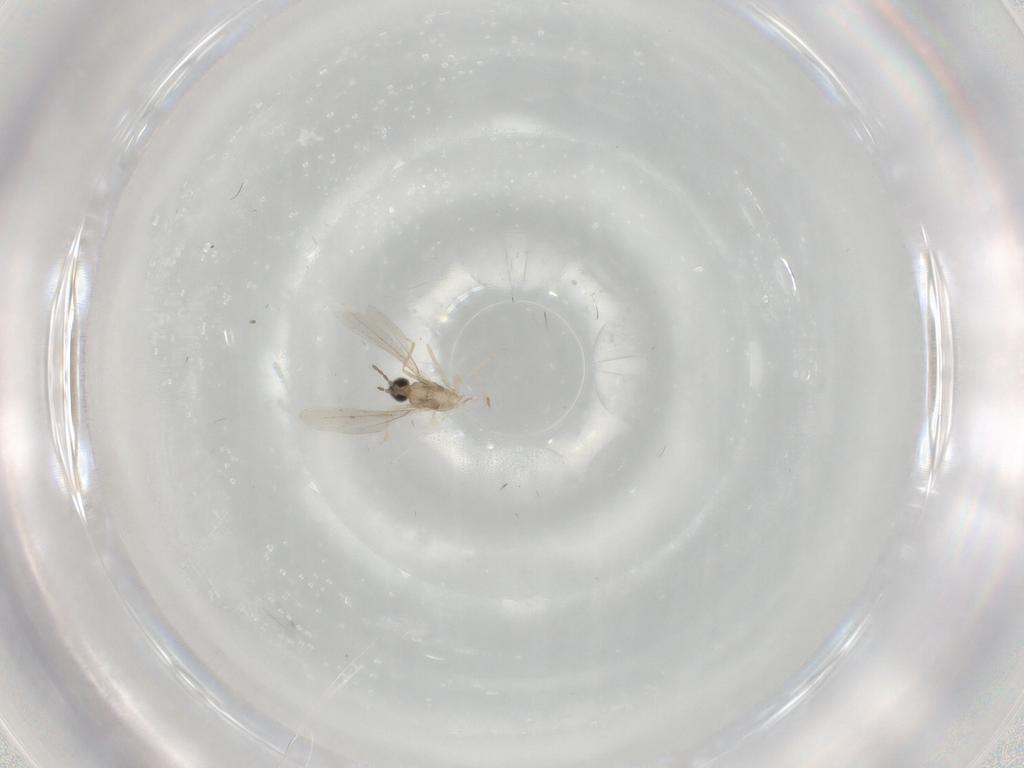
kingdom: Animalia
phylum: Arthropoda
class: Insecta
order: Diptera
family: Cecidomyiidae
